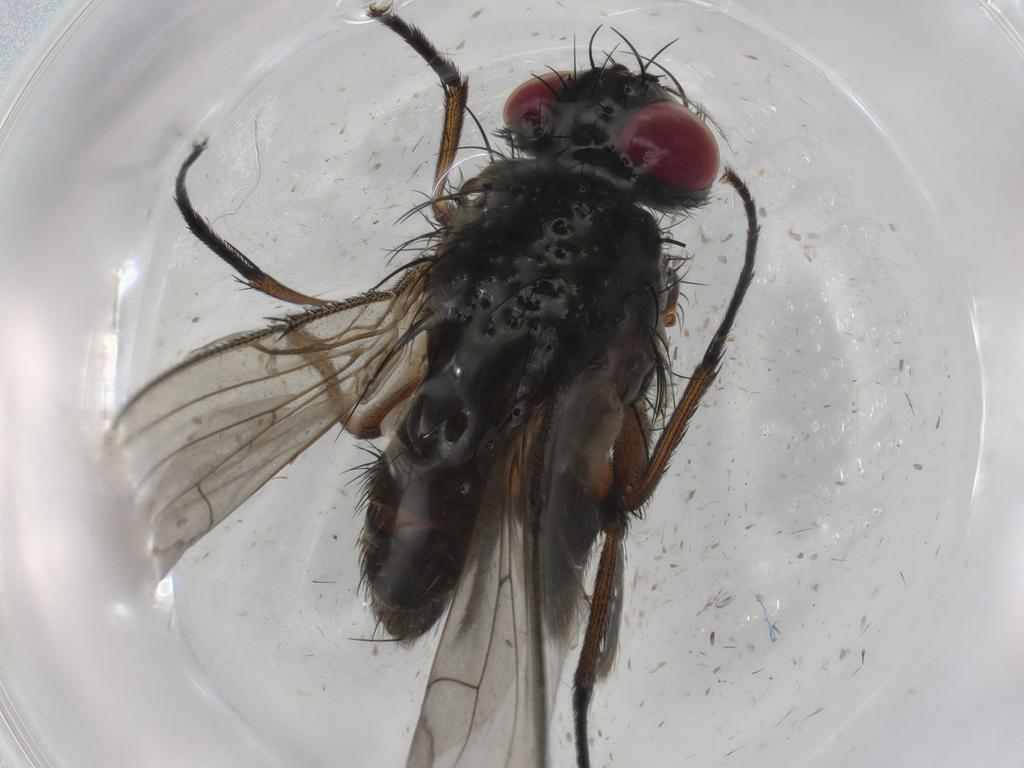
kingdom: Animalia
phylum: Arthropoda
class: Insecta
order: Diptera
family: Muscidae
